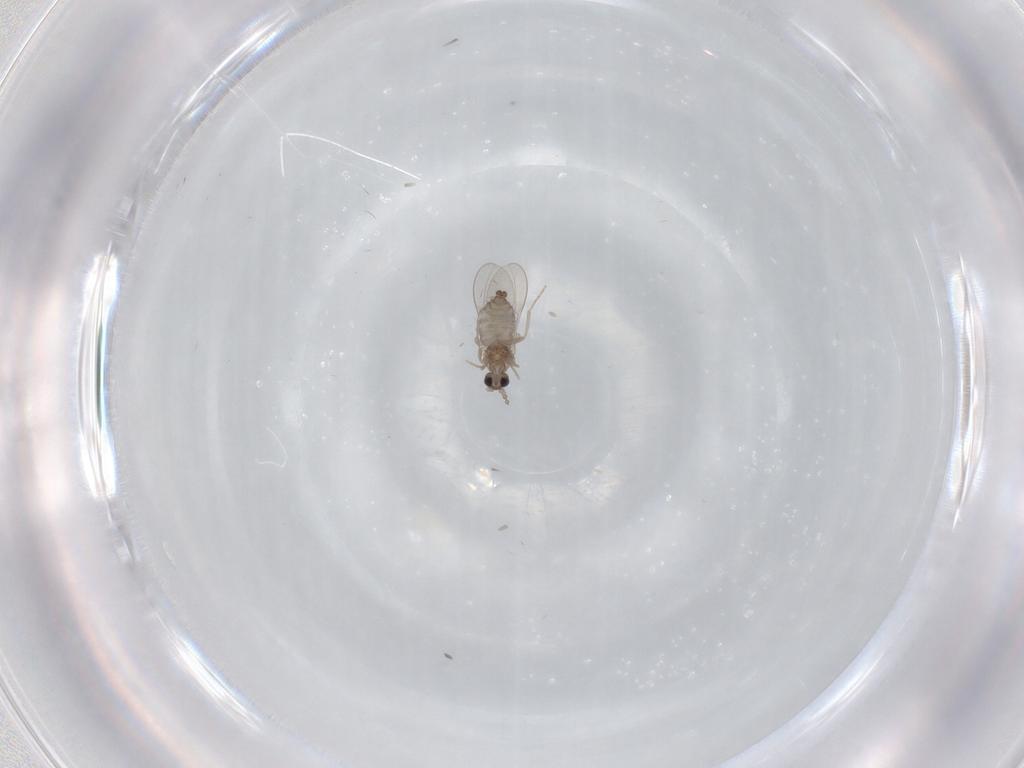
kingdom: Animalia
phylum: Arthropoda
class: Insecta
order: Diptera
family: Cecidomyiidae
